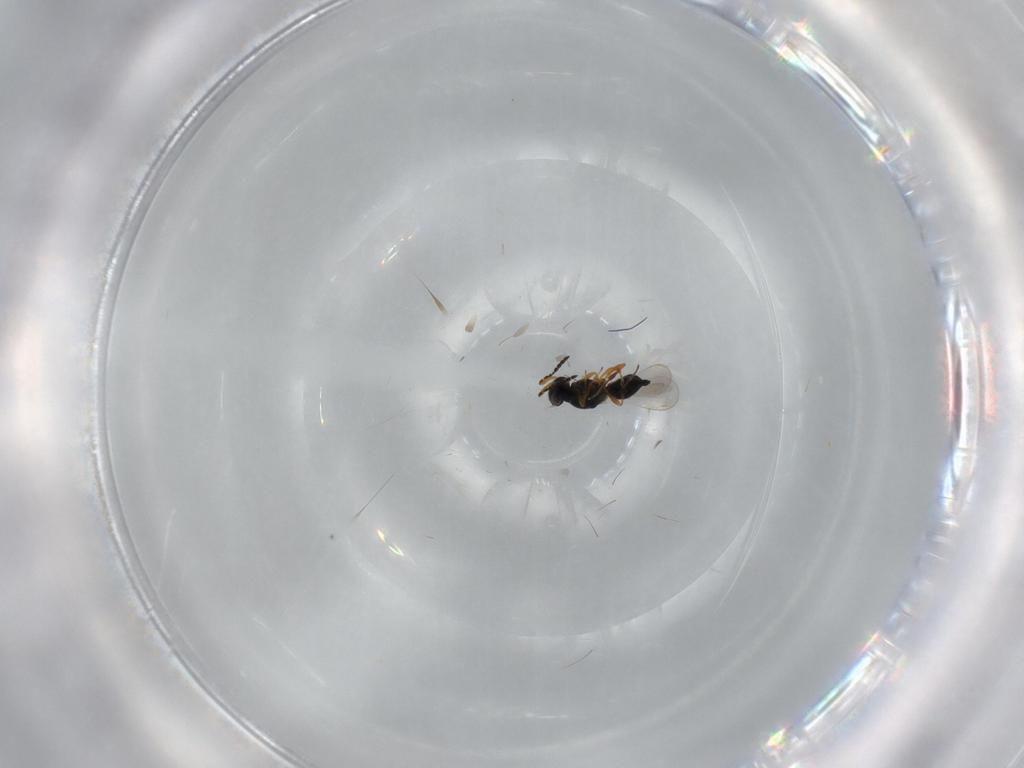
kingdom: Animalia
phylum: Arthropoda
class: Insecta
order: Hymenoptera
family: Platygastridae
